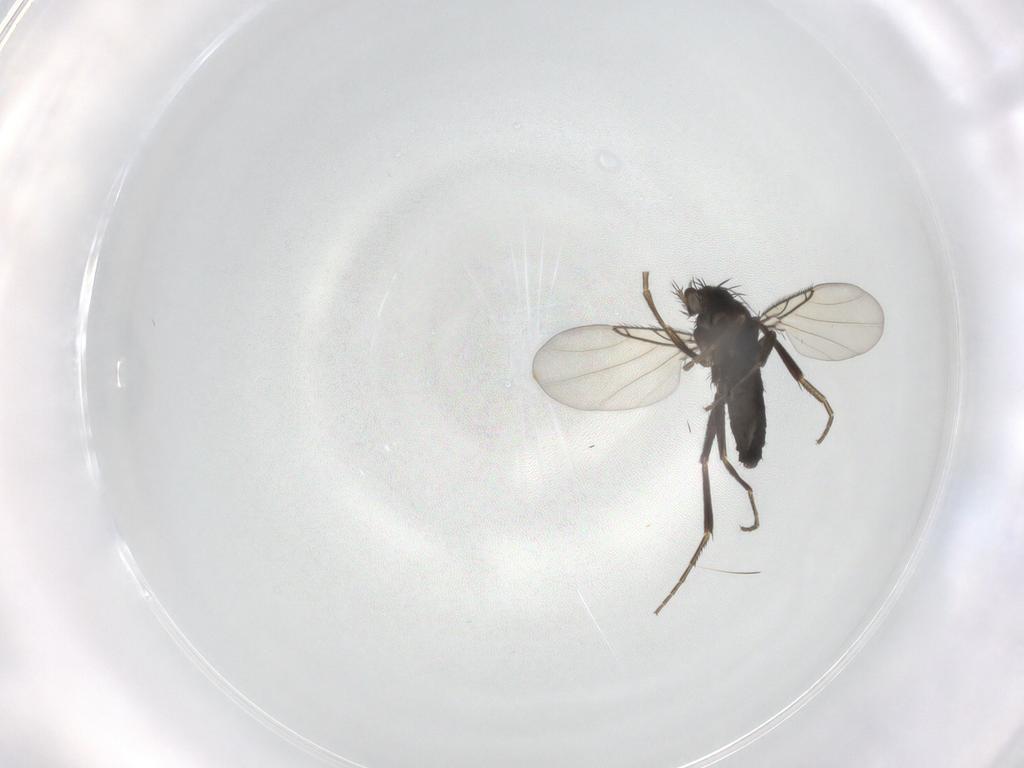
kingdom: Animalia
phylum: Arthropoda
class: Insecta
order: Diptera
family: Phoridae
